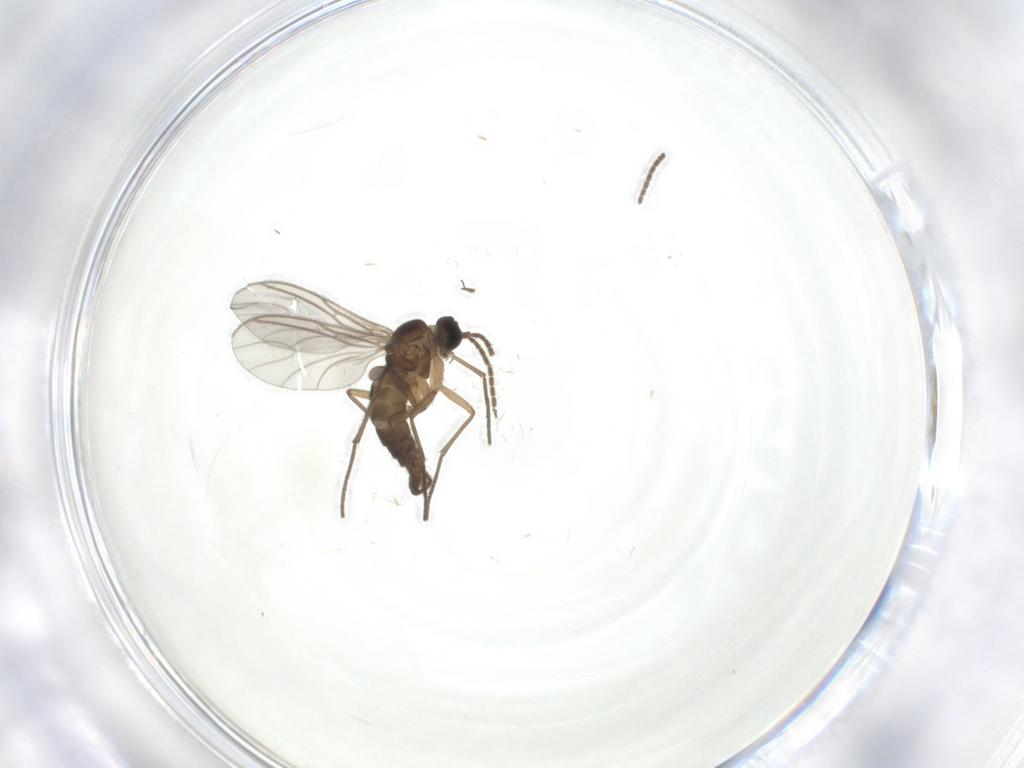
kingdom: Animalia
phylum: Arthropoda
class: Insecta
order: Diptera
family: Sciaridae
